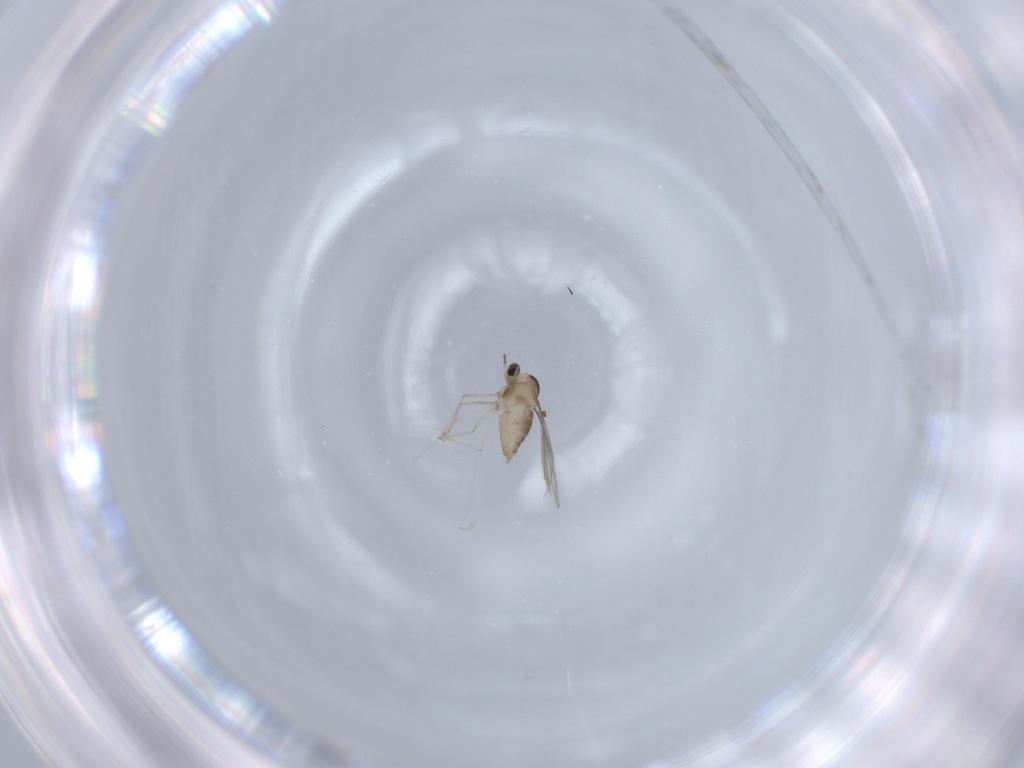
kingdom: Animalia
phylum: Arthropoda
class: Insecta
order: Diptera
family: Cecidomyiidae
